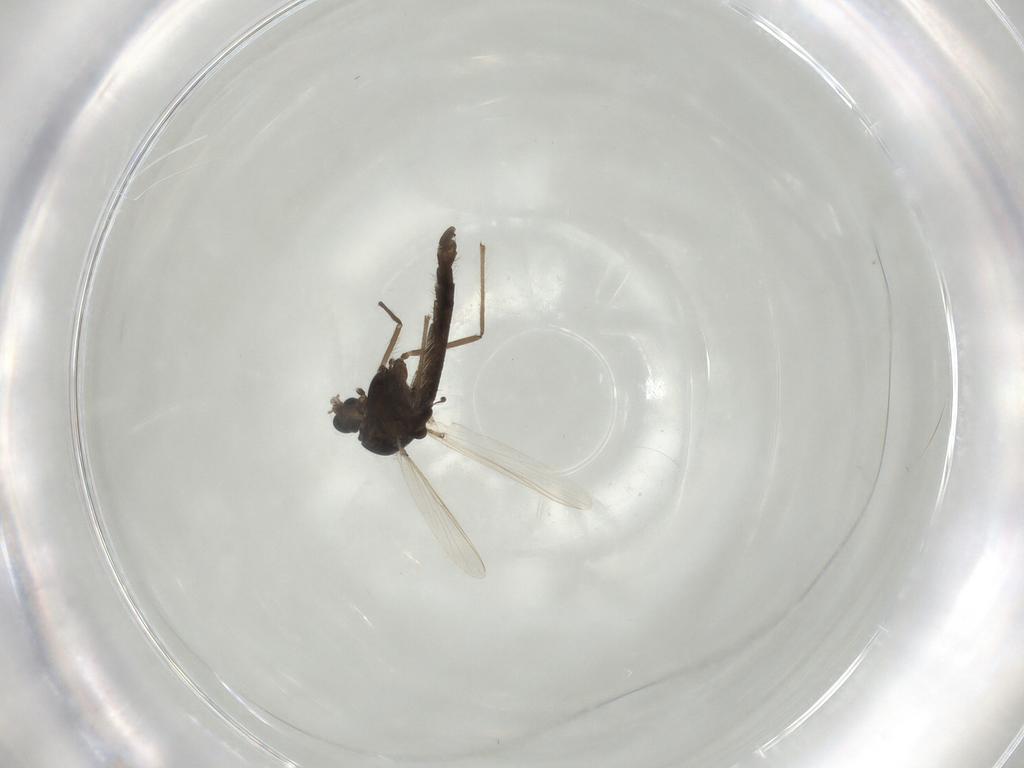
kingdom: Animalia
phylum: Arthropoda
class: Insecta
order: Diptera
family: Chironomidae
